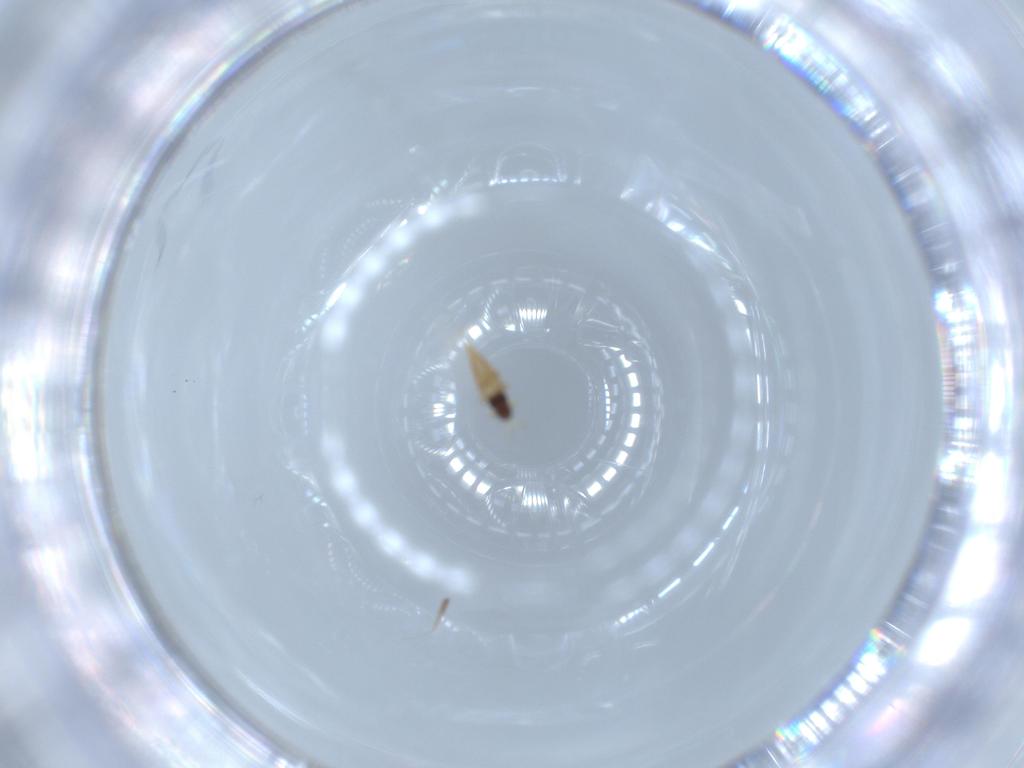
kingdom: Animalia
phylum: Arthropoda
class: Insecta
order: Thysanoptera
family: Phlaeothripidae
